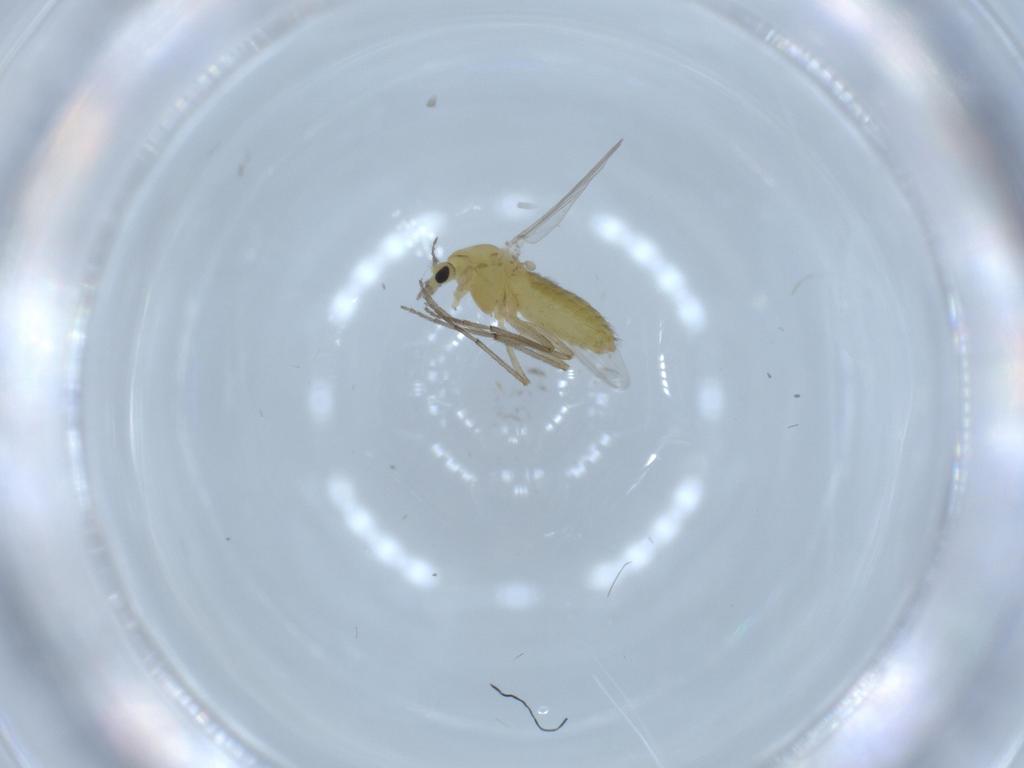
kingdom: Animalia
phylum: Arthropoda
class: Insecta
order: Diptera
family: Chironomidae
